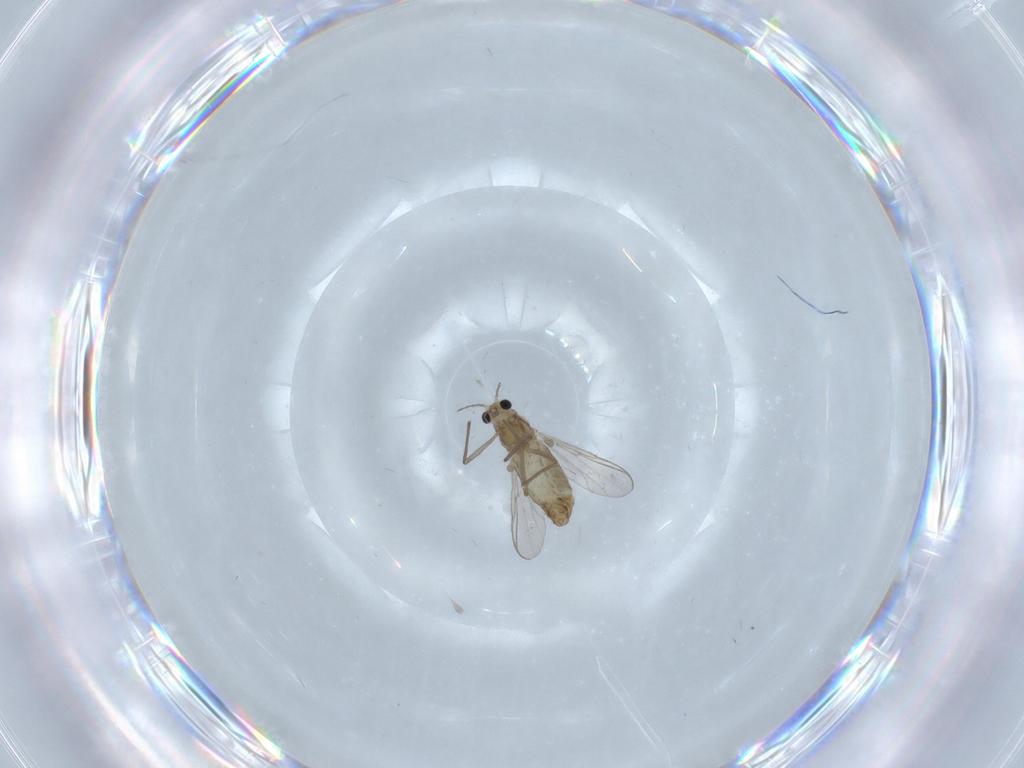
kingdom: Animalia
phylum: Arthropoda
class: Insecta
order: Diptera
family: Chironomidae
